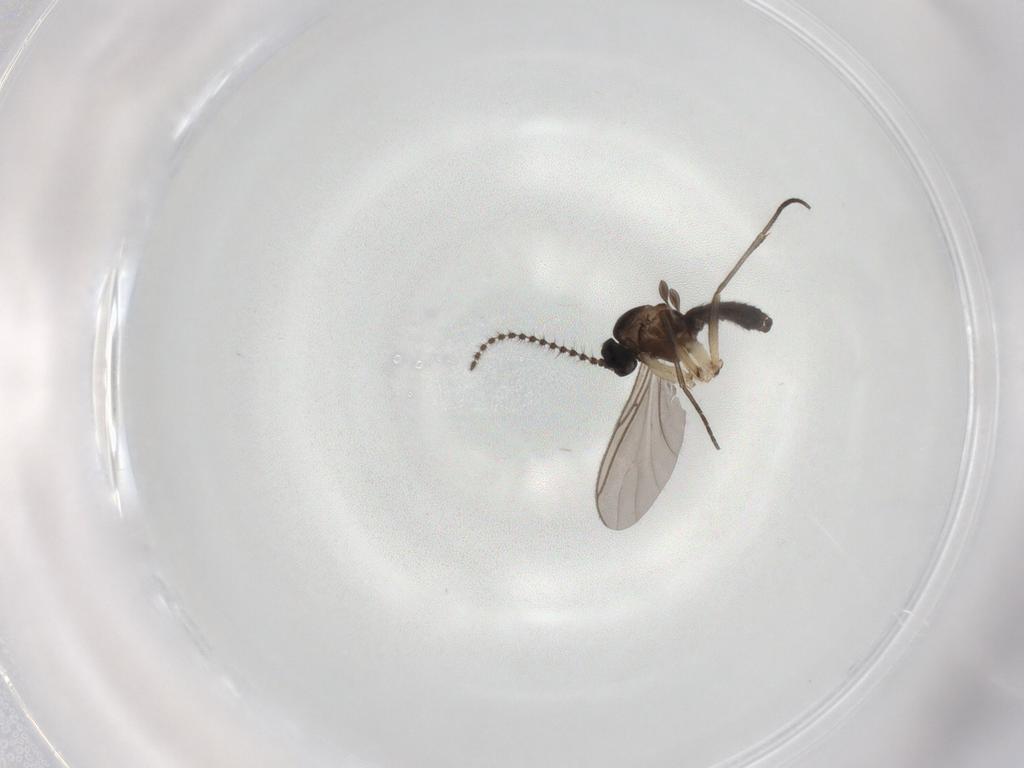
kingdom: Animalia
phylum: Arthropoda
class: Insecta
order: Diptera
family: Sciaridae
